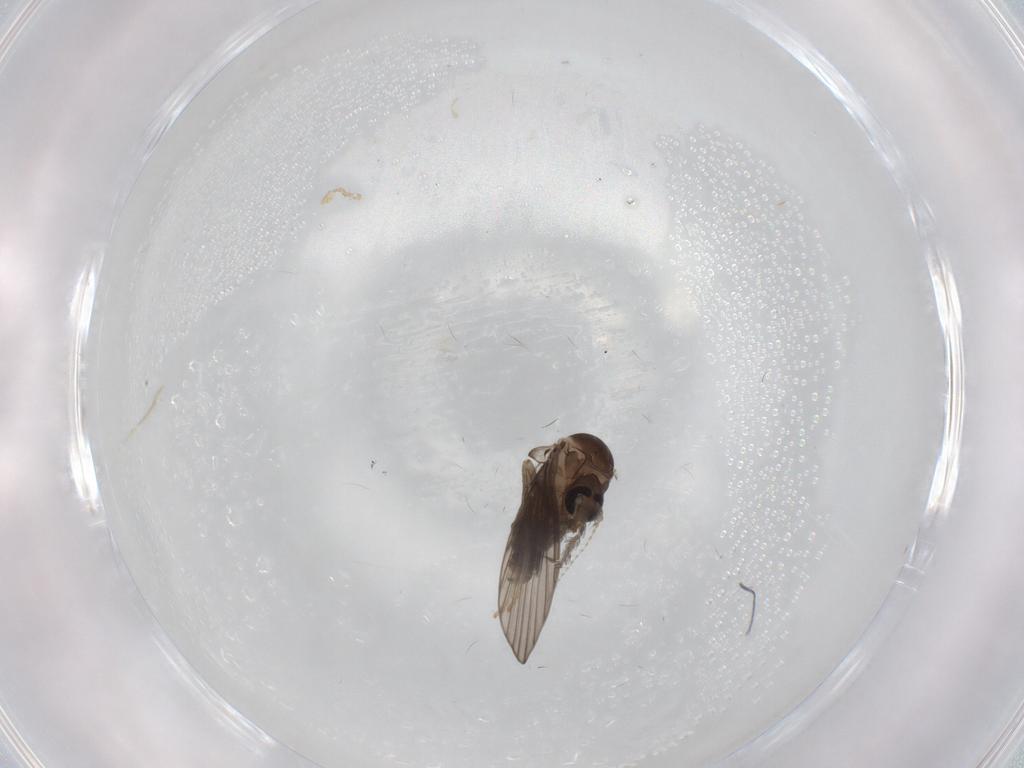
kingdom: Animalia
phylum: Arthropoda
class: Insecta
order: Diptera
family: Psychodidae
